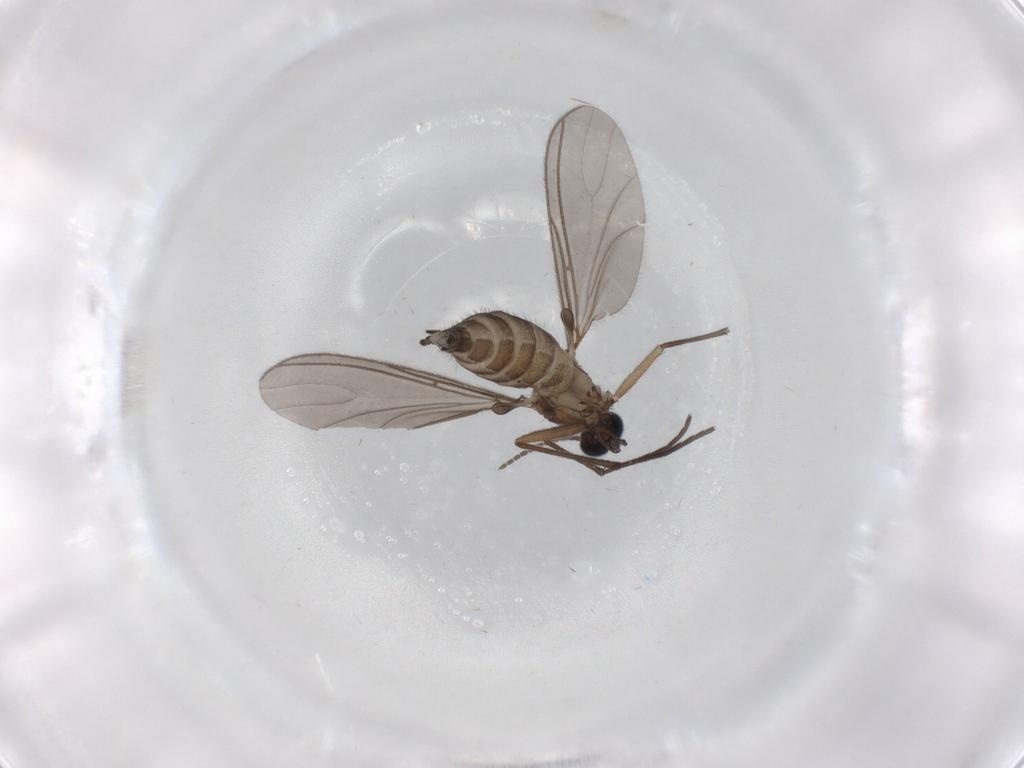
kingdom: Animalia
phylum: Arthropoda
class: Insecta
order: Diptera
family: Sciaridae
